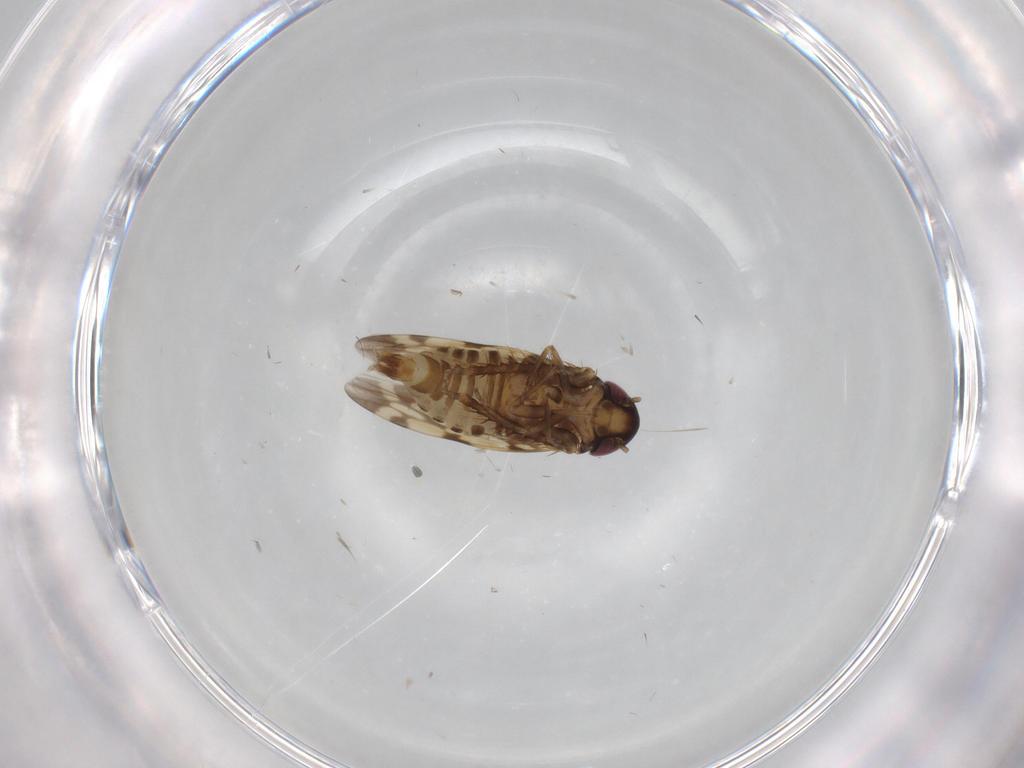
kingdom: Animalia
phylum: Arthropoda
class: Insecta
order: Hemiptera
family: Cicadellidae
